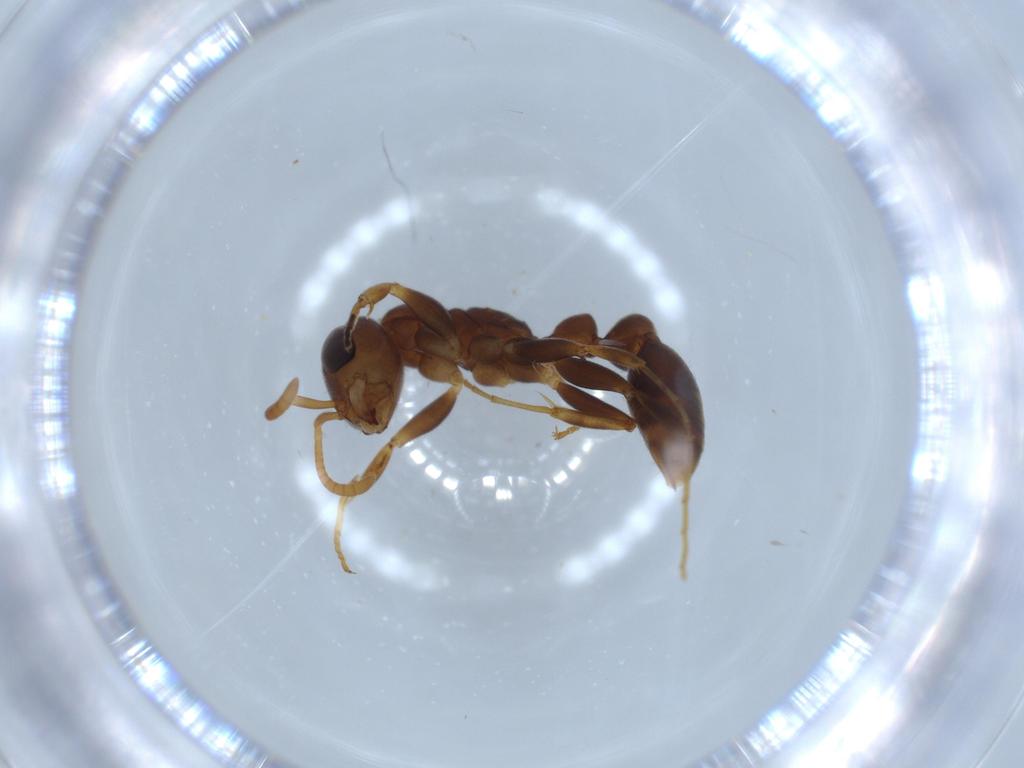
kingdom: Animalia
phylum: Arthropoda
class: Insecta
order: Hymenoptera
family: Formicidae
